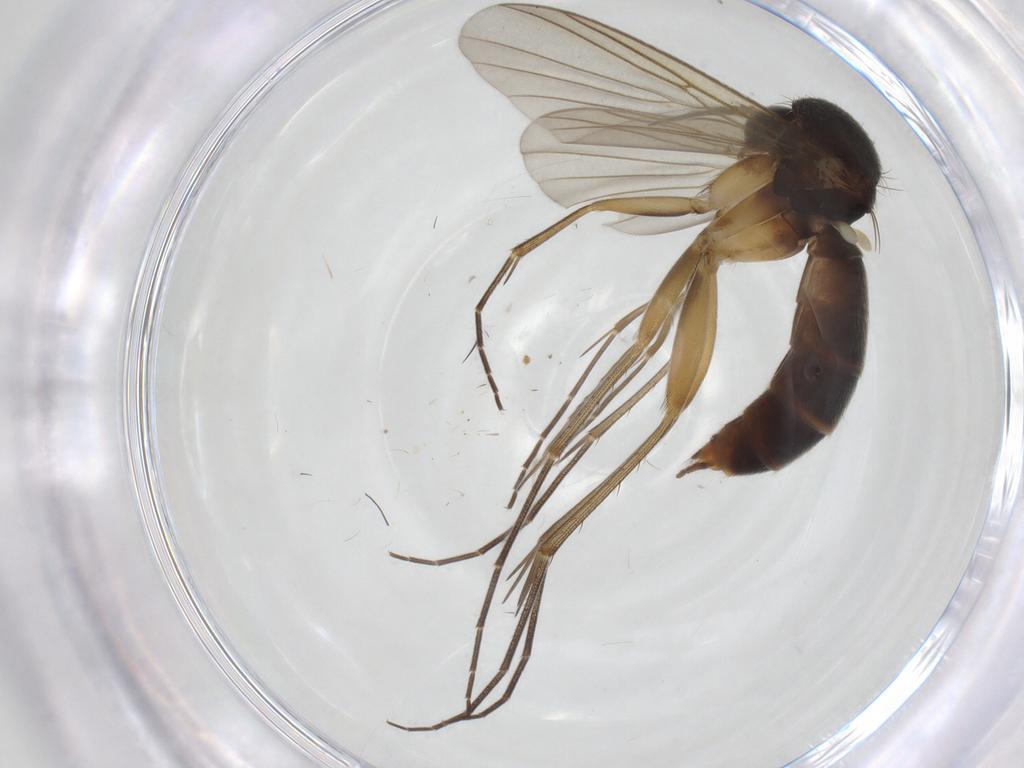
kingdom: Animalia
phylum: Arthropoda
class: Insecta
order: Diptera
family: Mycetophilidae
